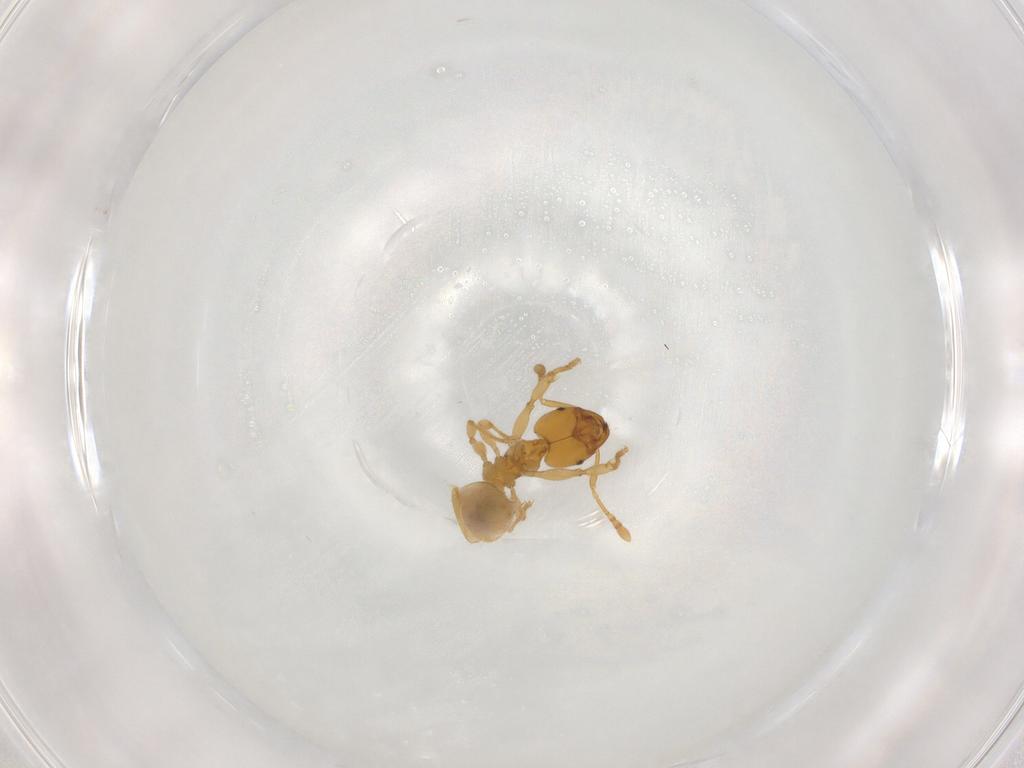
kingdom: Animalia
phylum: Arthropoda
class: Insecta
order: Hymenoptera
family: Formicidae
